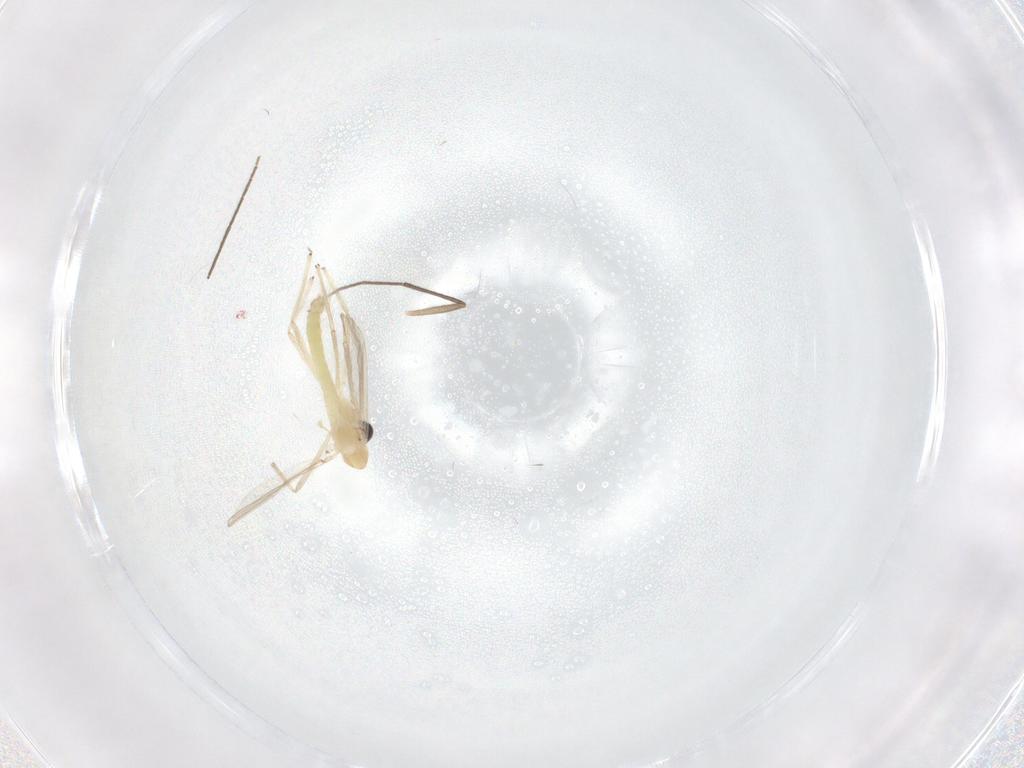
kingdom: Animalia
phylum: Arthropoda
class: Insecta
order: Diptera
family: Chironomidae
